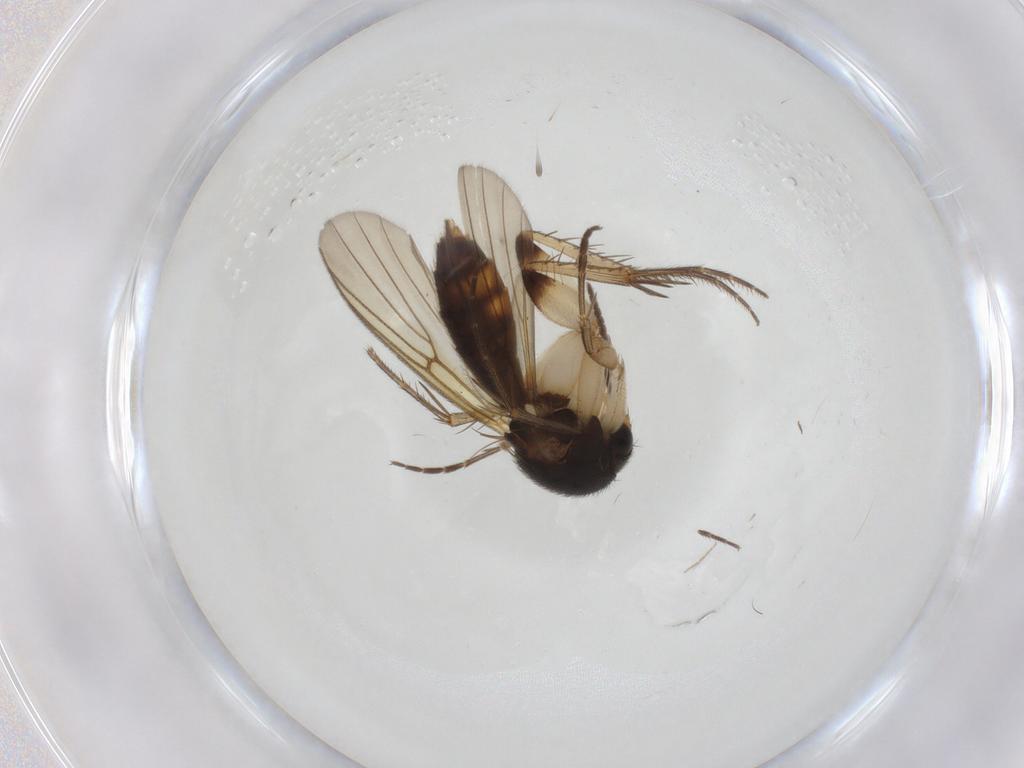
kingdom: Animalia
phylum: Arthropoda
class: Insecta
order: Diptera
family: Mycetophilidae
